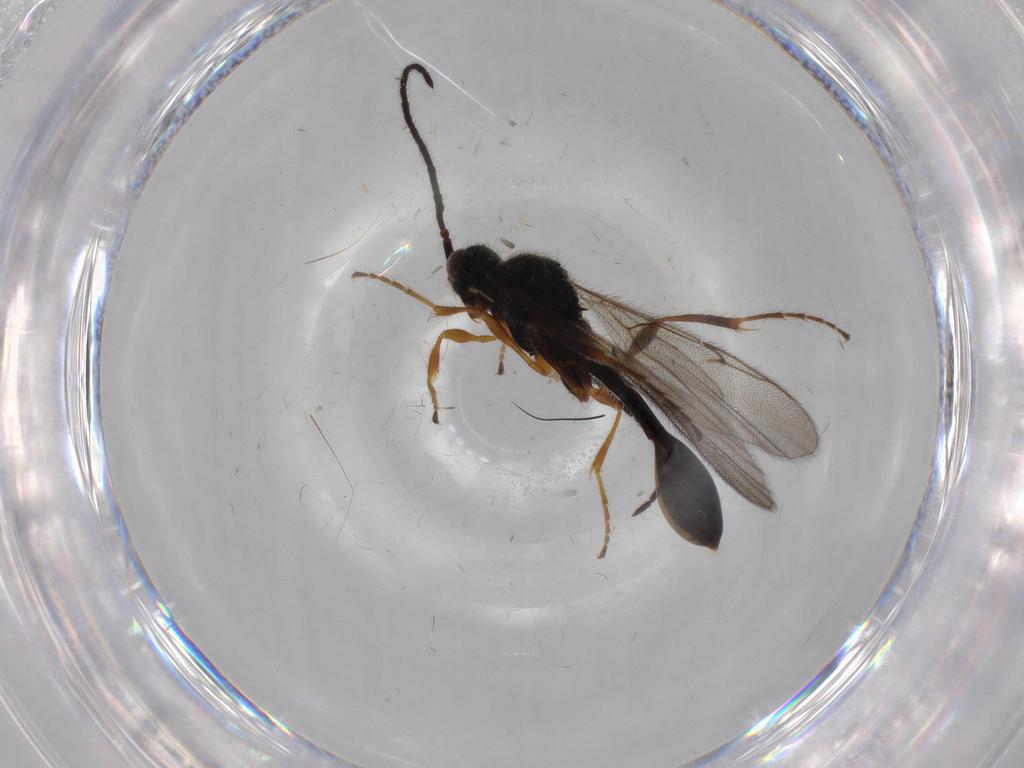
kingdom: Animalia
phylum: Arthropoda
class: Insecta
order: Hymenoptera
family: Diapriidae
